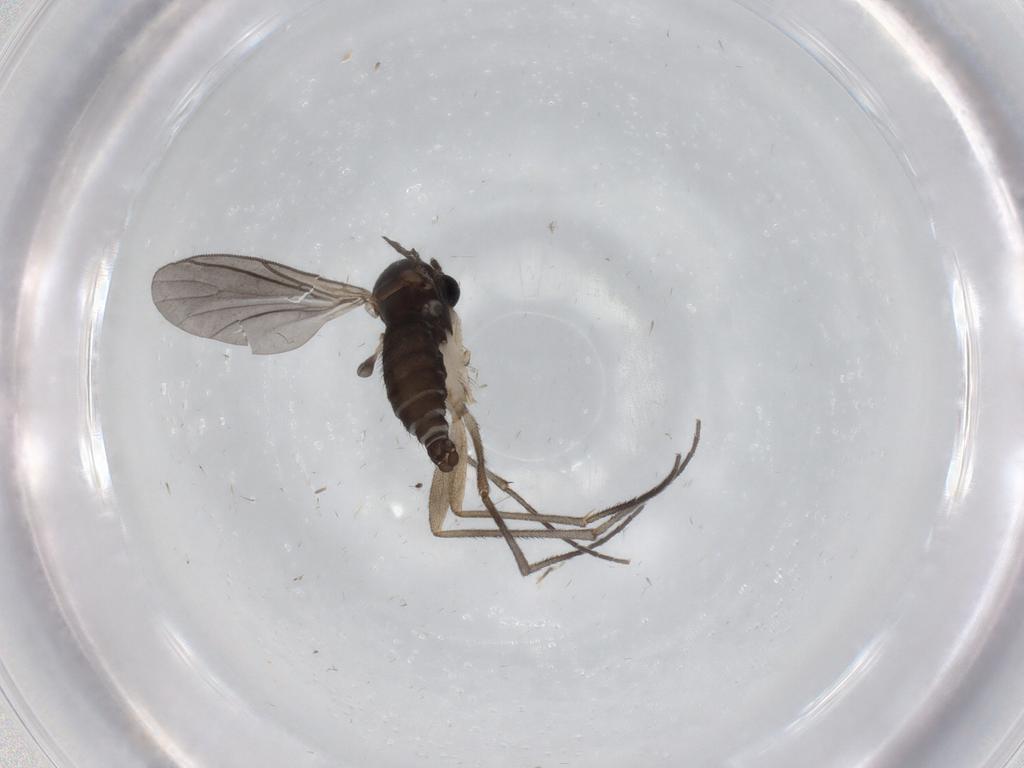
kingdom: Animalia
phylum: Arthropoda
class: Insecta
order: Diptera
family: Sciaridae
